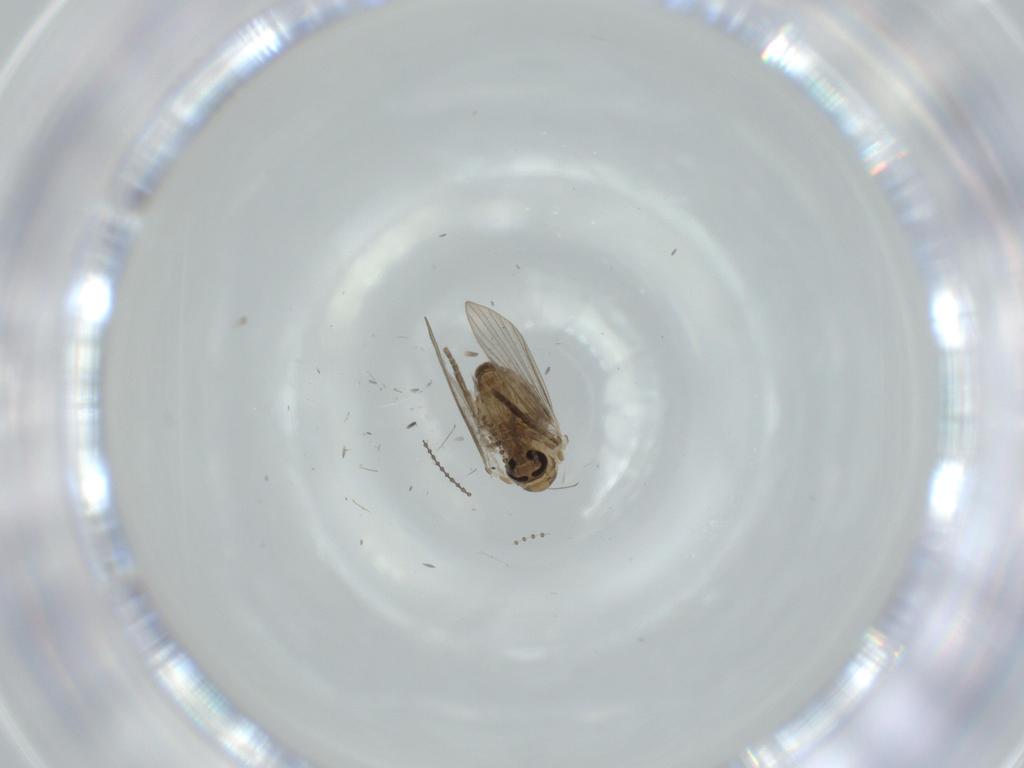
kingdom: Animalia
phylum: Arthropoda
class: Insecta
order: Diptera
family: Psychodidae
